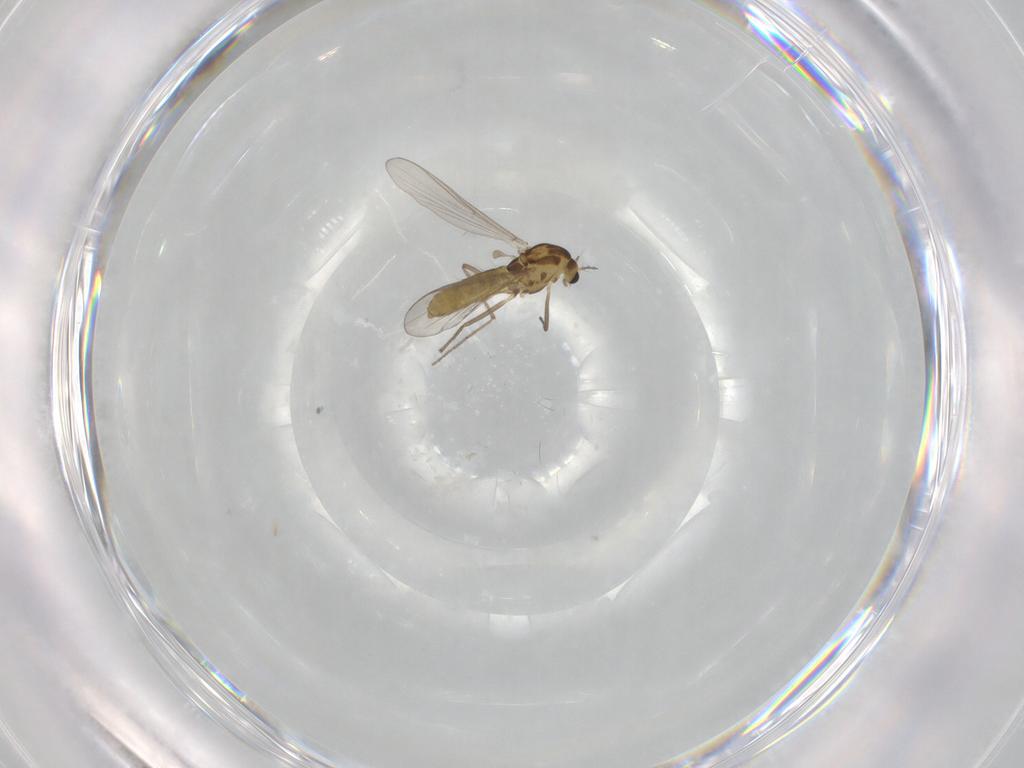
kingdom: Animalia
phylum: Arthropoda
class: Insecta
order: Diptera
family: Chironomidae
